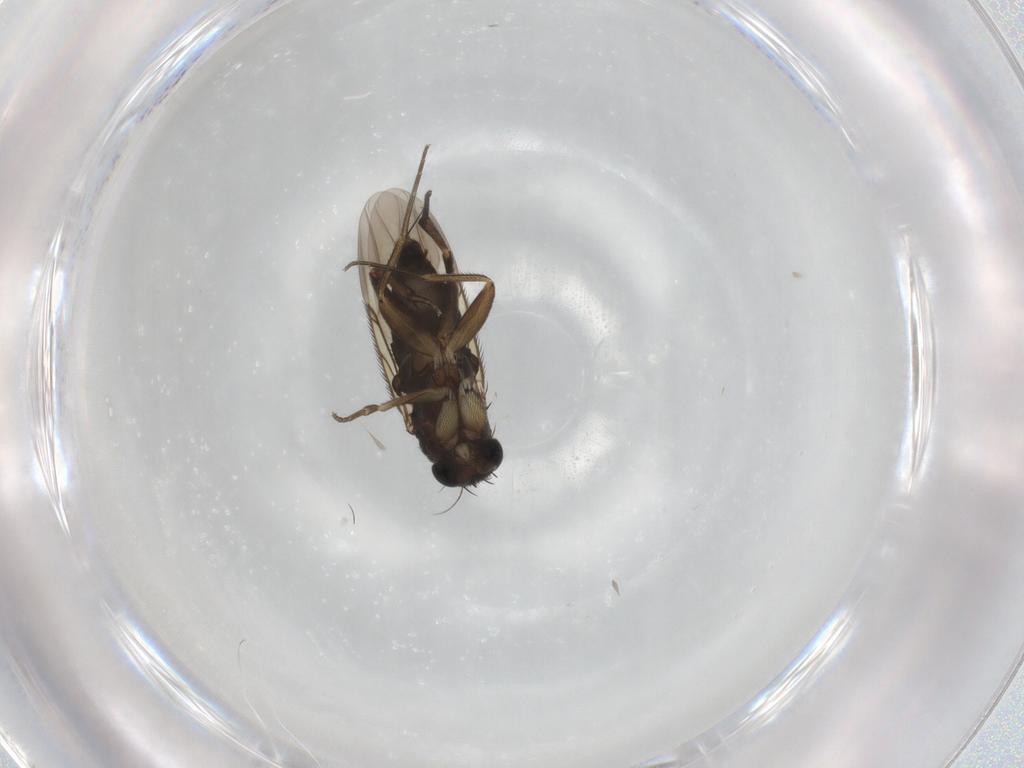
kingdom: Animalia
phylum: Arthropoda
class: Insecta
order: Diptera
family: Phoridae
